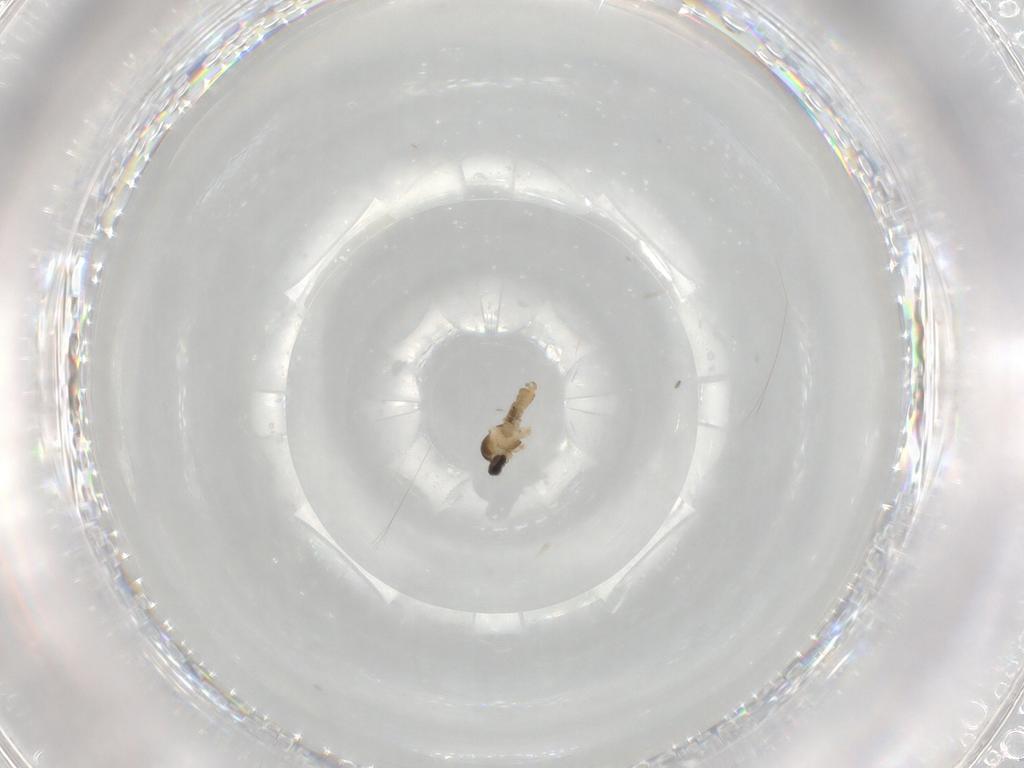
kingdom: Animalia
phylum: Arthropoda
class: Insecta
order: Diptera
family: Cecidomyiidae
